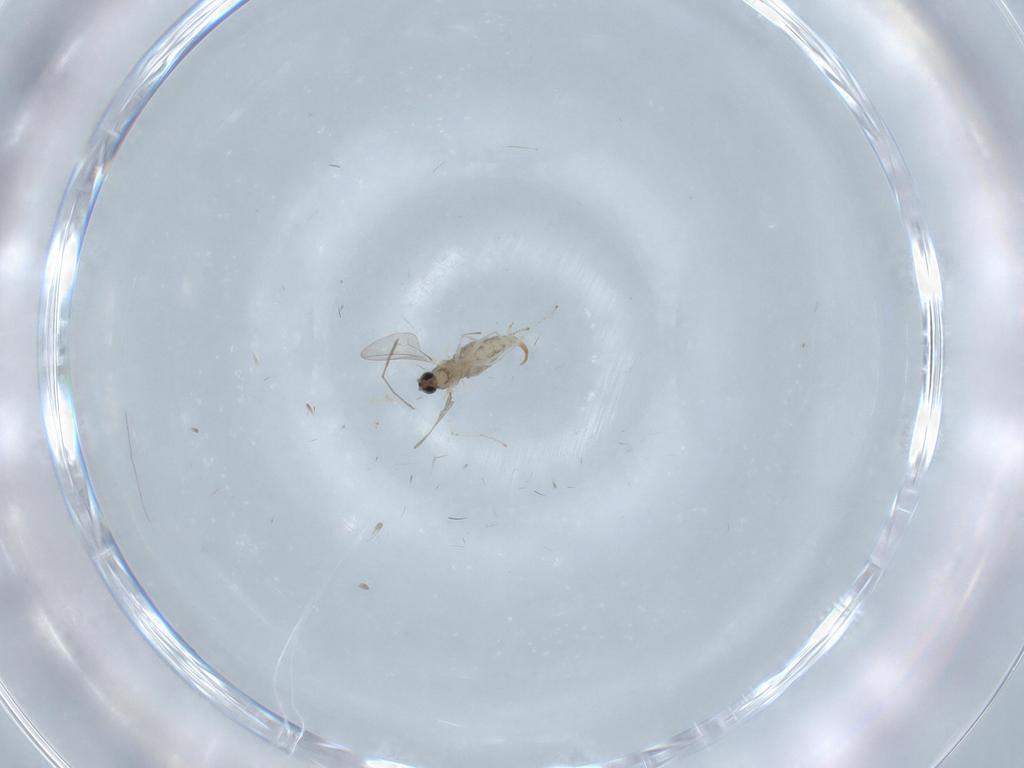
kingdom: Animalia
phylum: Arthropoda
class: Insecta
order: Diptera
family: Cecidomyiidae
